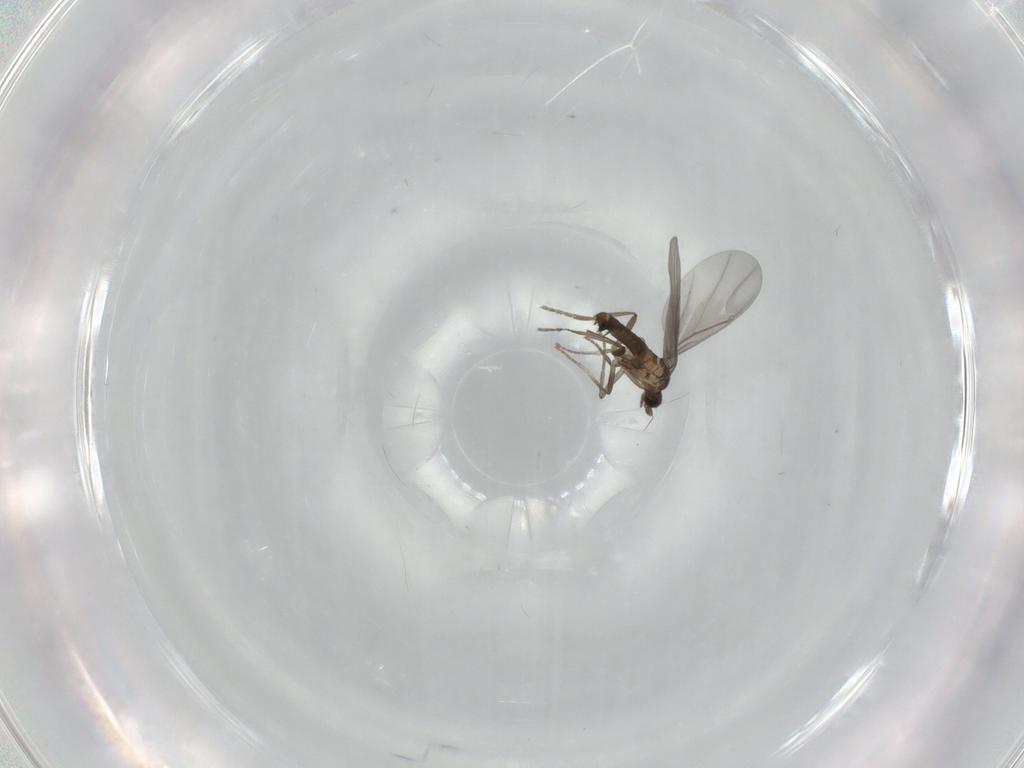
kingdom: Animalia
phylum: Arthropoda
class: Insecta
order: Diptera
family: Phoridae
